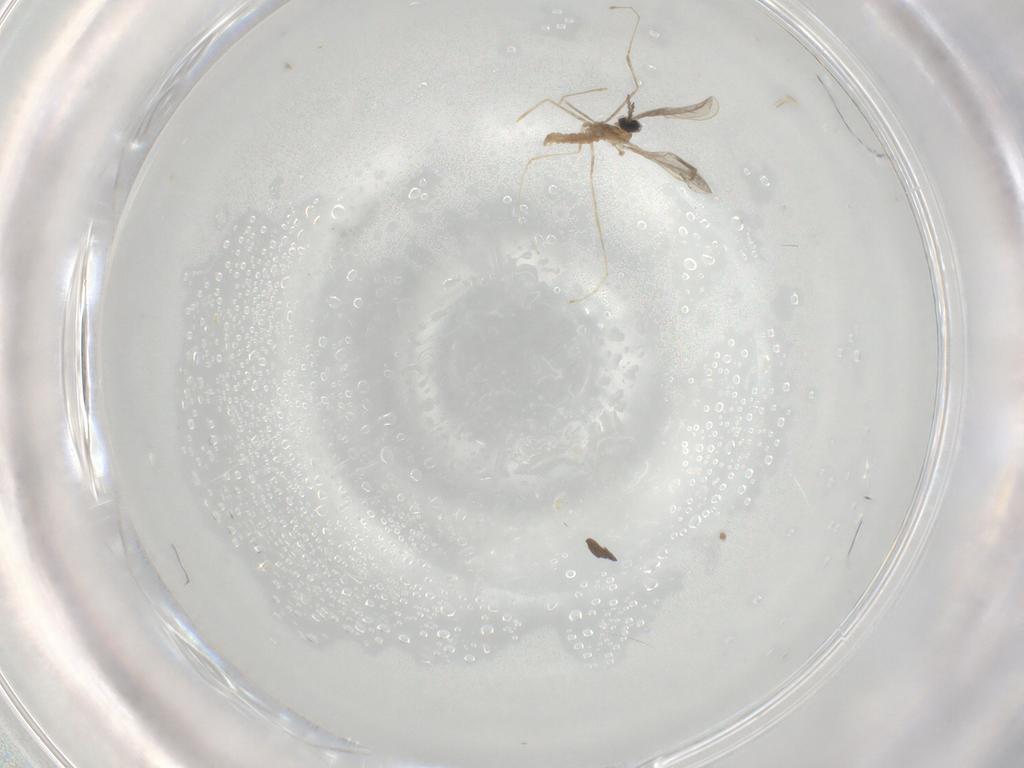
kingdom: Animalia
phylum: Arthropoda
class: Insecta
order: Diptera
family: Cecidomyiidae
